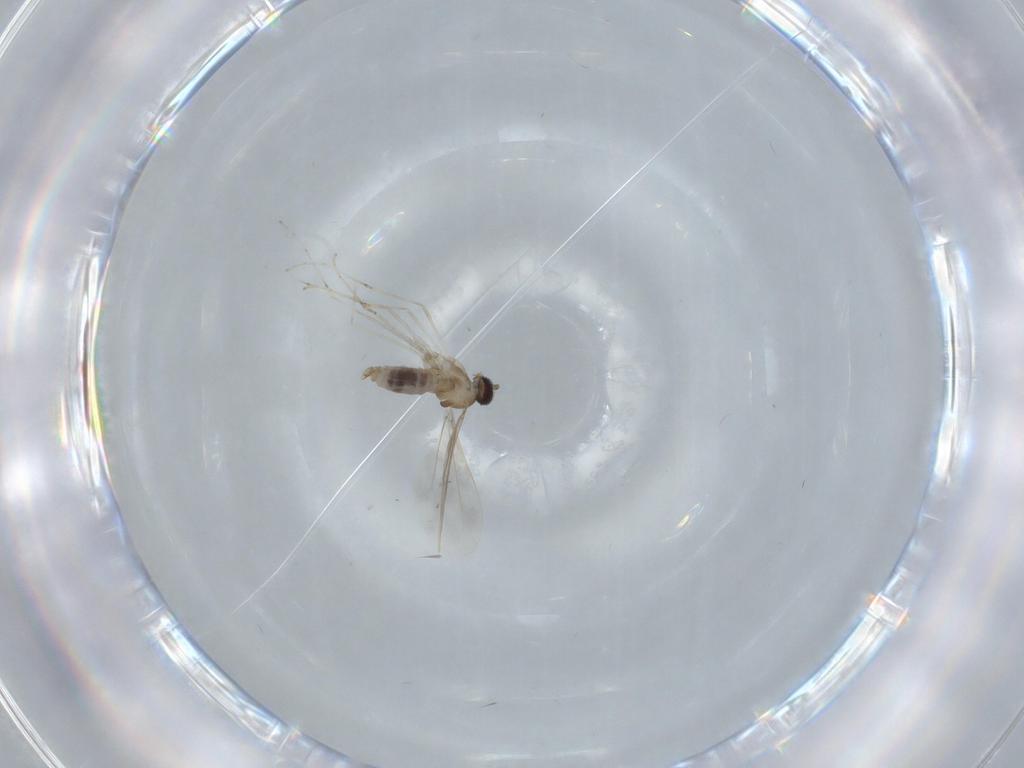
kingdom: Animalia
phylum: Arthropoda
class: Insecta
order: Diptera
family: Cecidomyiidae
